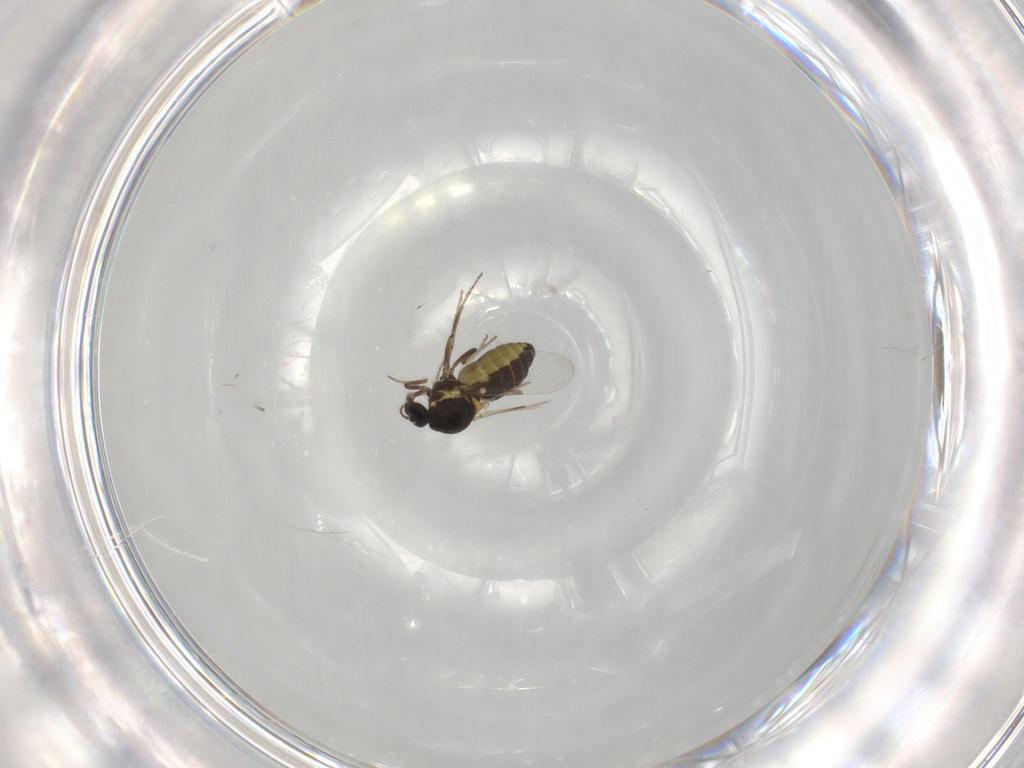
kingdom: Animalia
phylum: Arthropoda
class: Insecta
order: Diptera
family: Ceratopogonidae
